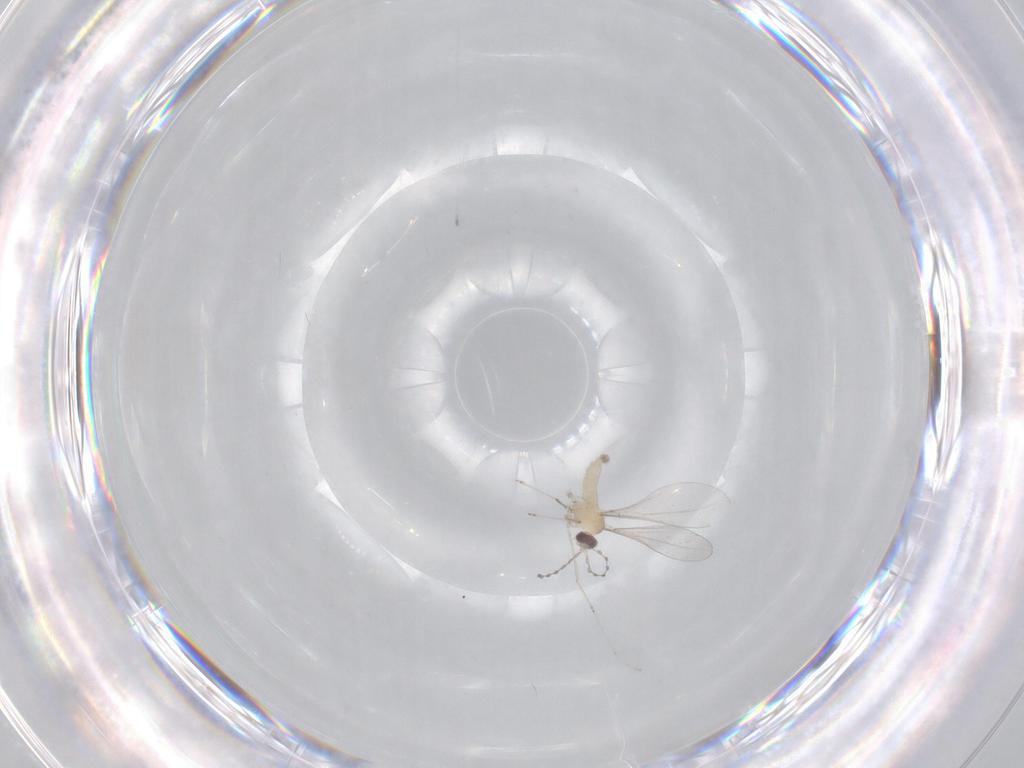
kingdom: Animalia
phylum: Arthropoda
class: Insecta
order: Diptera
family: Cecidomyiidae
